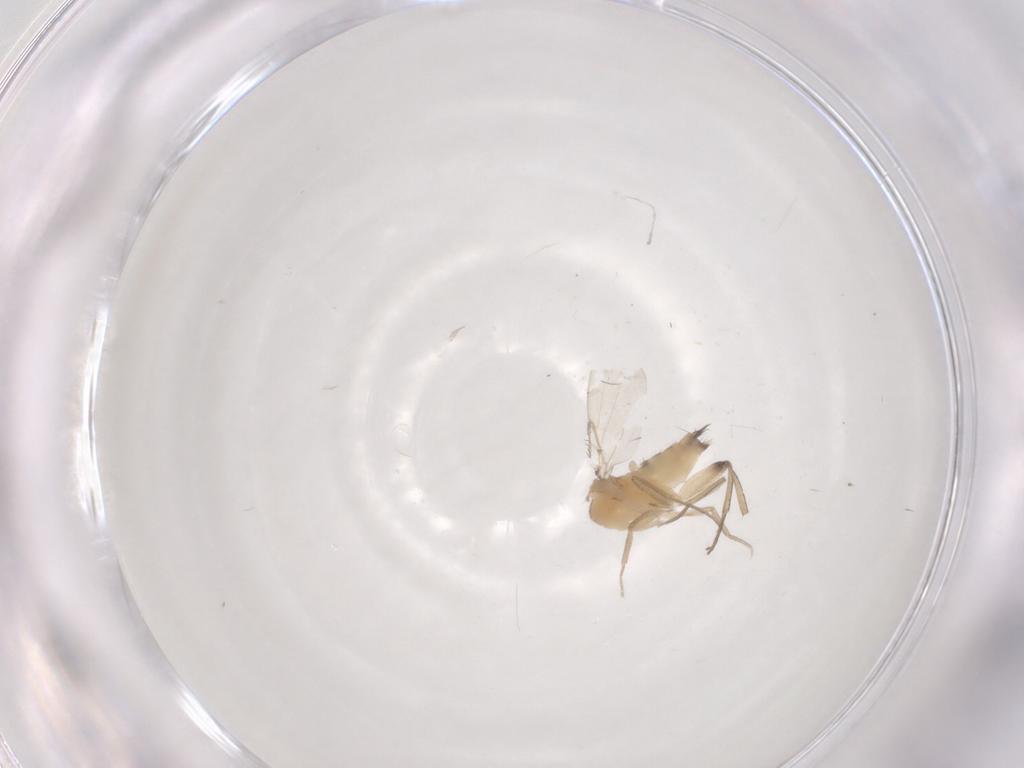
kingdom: Animalia
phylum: Arthropoda
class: Insecta
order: Diptera
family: Phoridae
